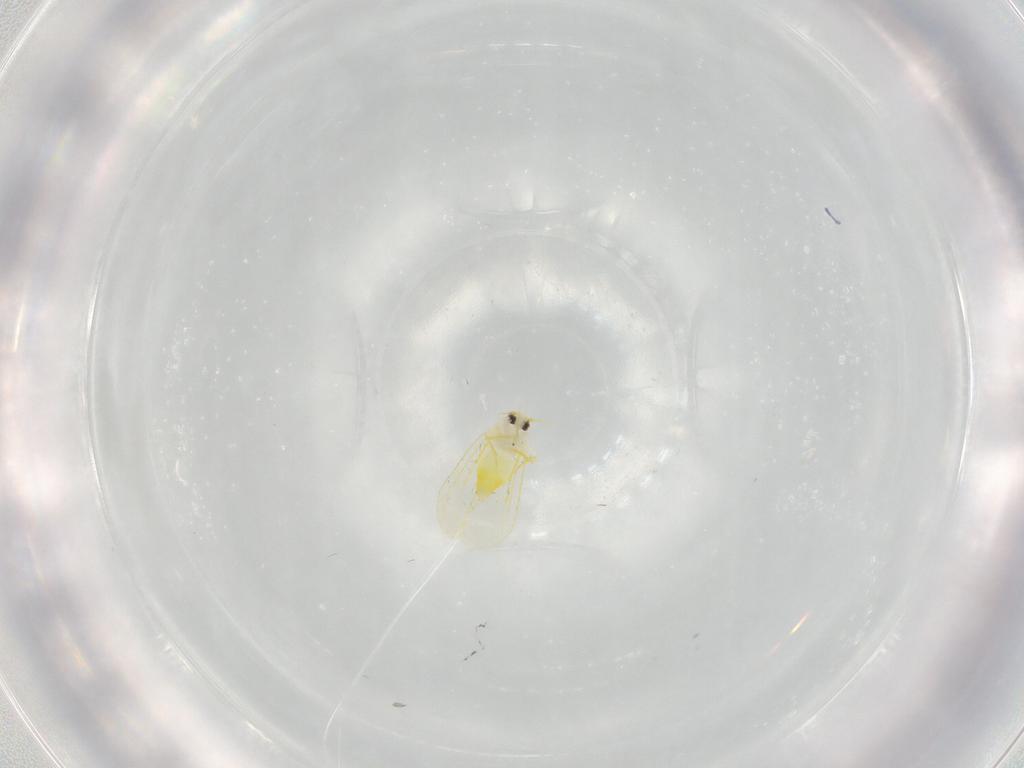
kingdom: Animalia
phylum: Arthropoda
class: Insecta
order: Hemiptera
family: Aleyrodidae
